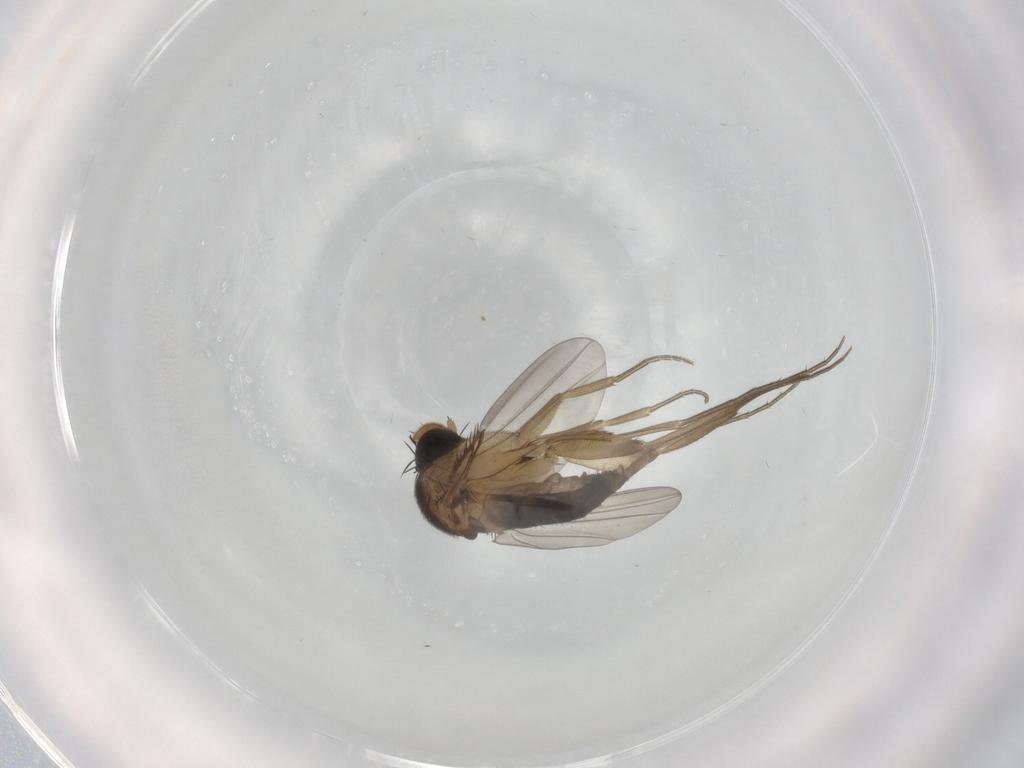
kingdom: Animalia
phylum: Arthropoda
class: Insecta
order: Diptera
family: Phoridae
